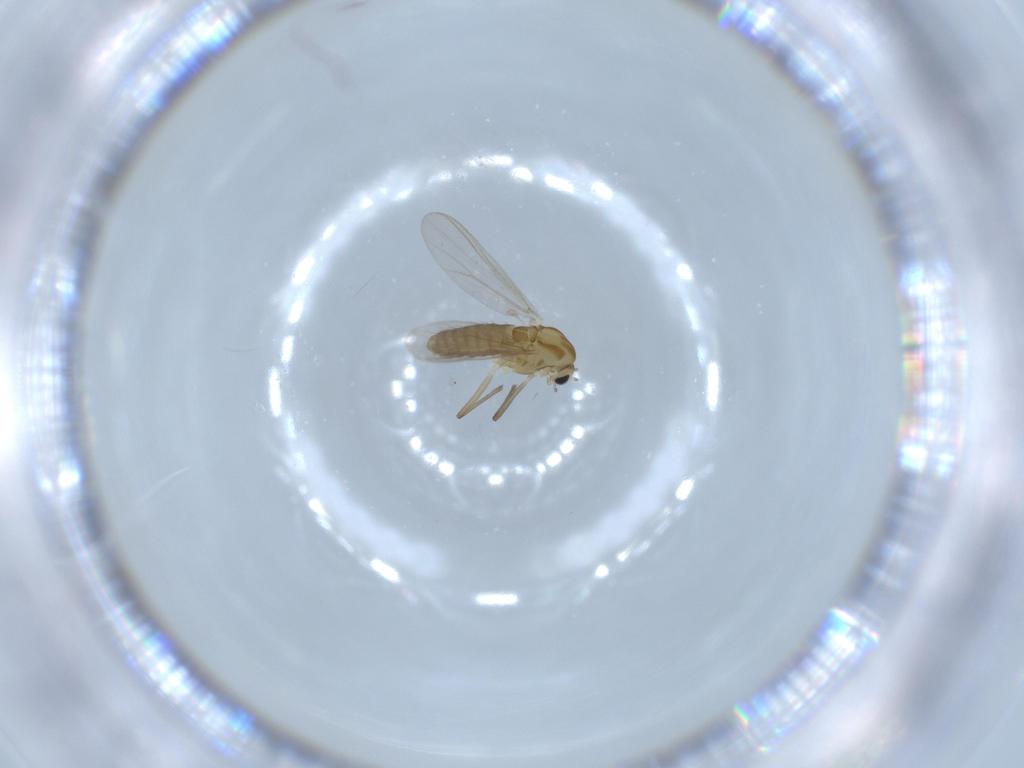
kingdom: Animalia
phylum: Arthropoda
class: Insecta
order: Diptera
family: Chironomidae
